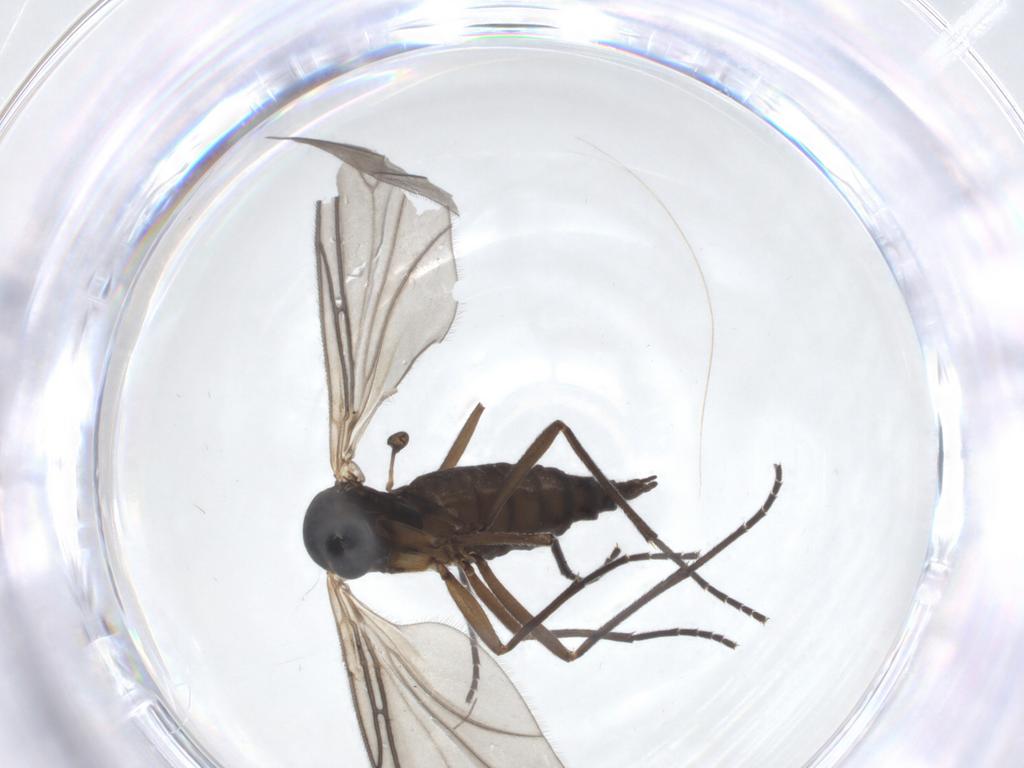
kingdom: Animalia
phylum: Arthropoda
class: Insecta
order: Diptera
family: Sciaridae
